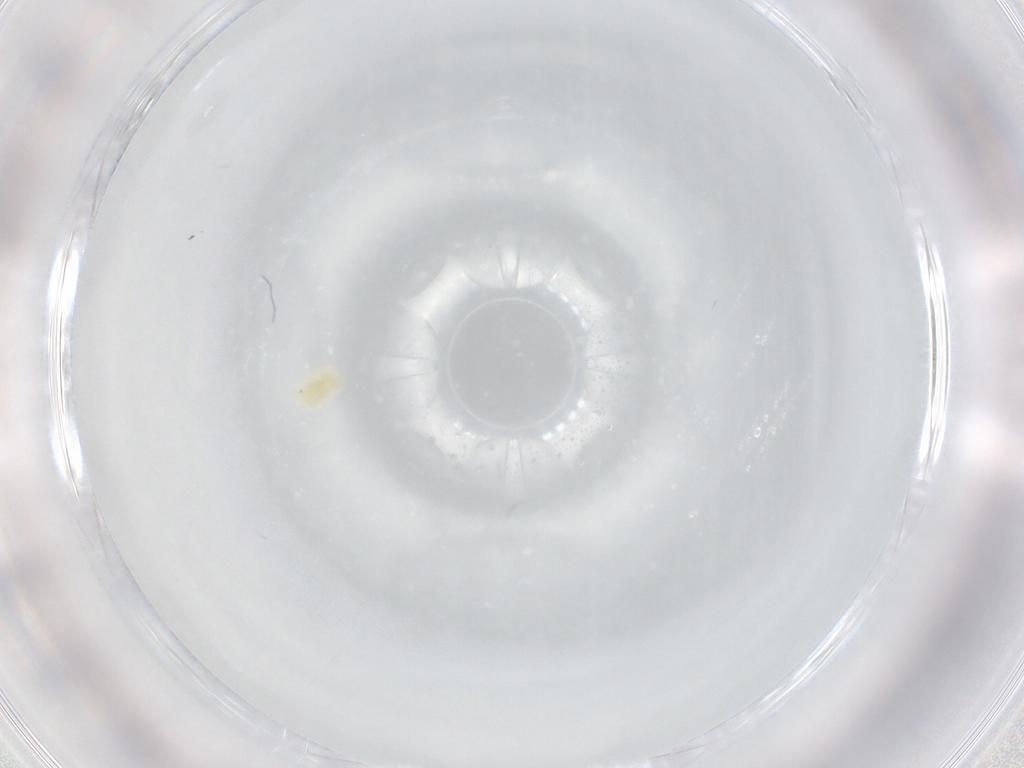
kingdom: Animalia
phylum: Arthropoda
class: Arachnida
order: Trombidiformes
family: Eupodidae
